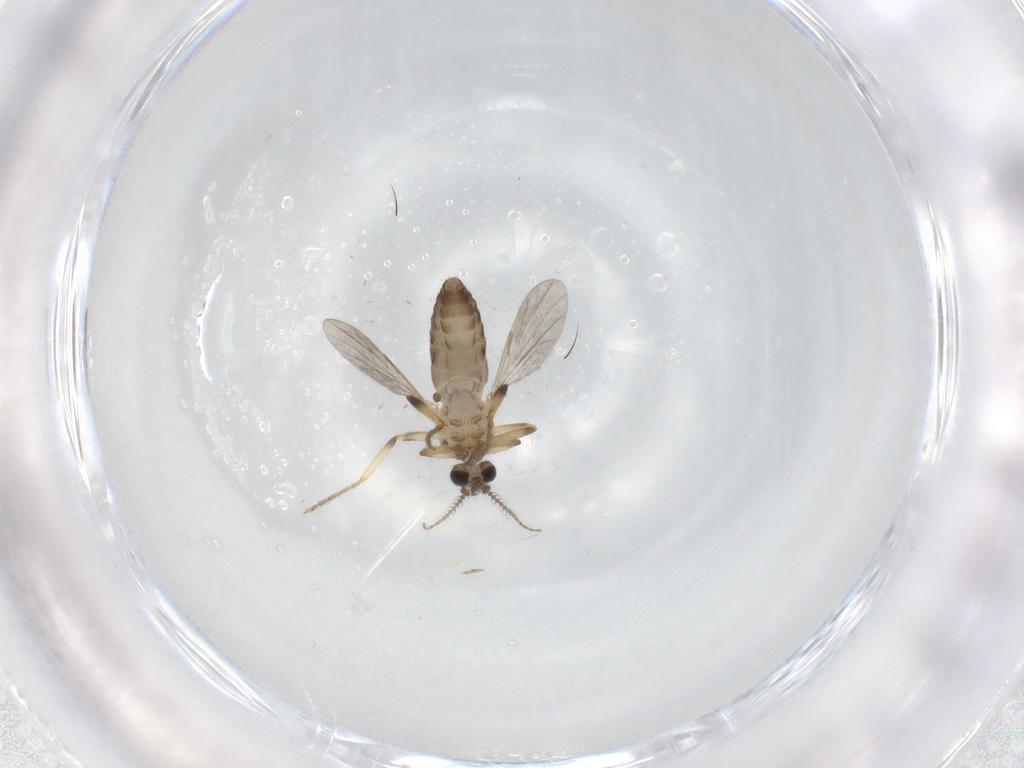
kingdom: Animalia
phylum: Arthropoda
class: Insecta
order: Diptera
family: Ceratopogonidae
